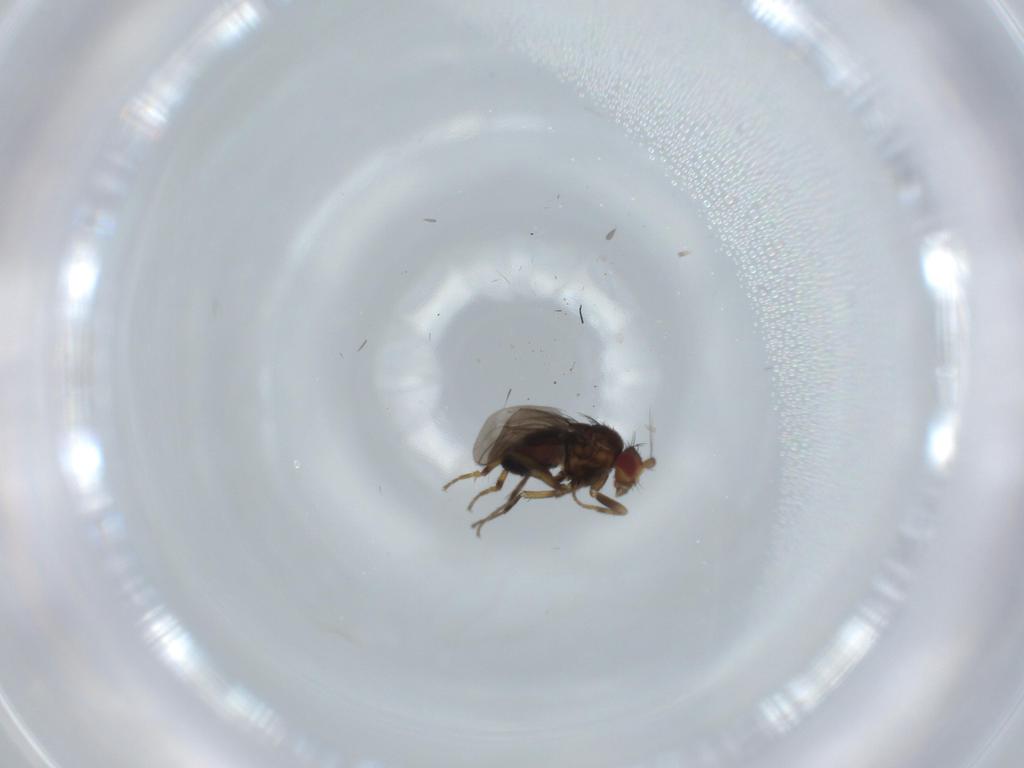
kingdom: Animalia
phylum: Arthropoda
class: Insecta
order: Diptera
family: Sphaeroceridae
